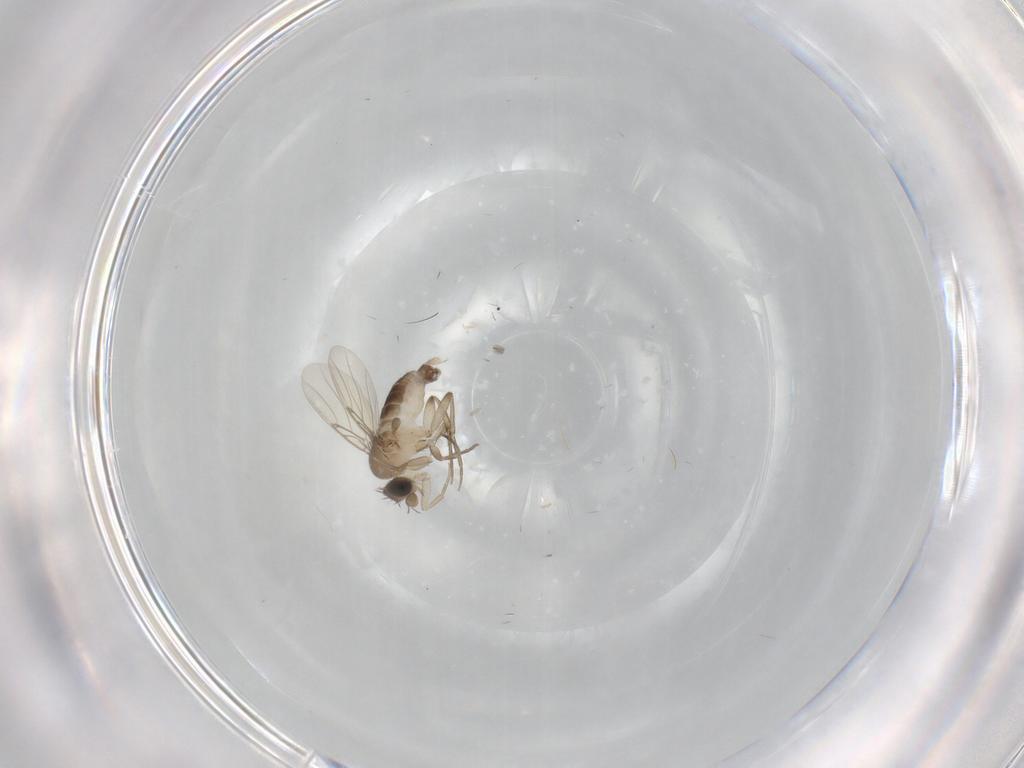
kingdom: Animalia
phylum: Arthropoda
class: Insecta
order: Diptera
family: Phoridae
